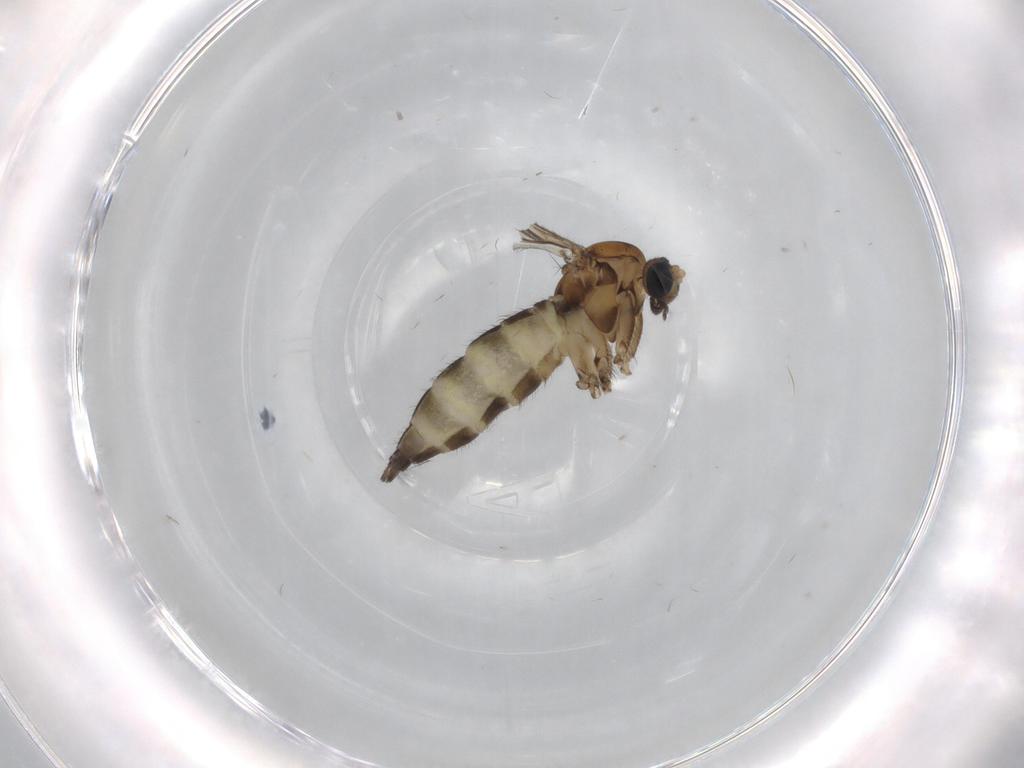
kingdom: Animalia
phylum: Arthropoda
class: Insecta
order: Diptera
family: Sciaridae
